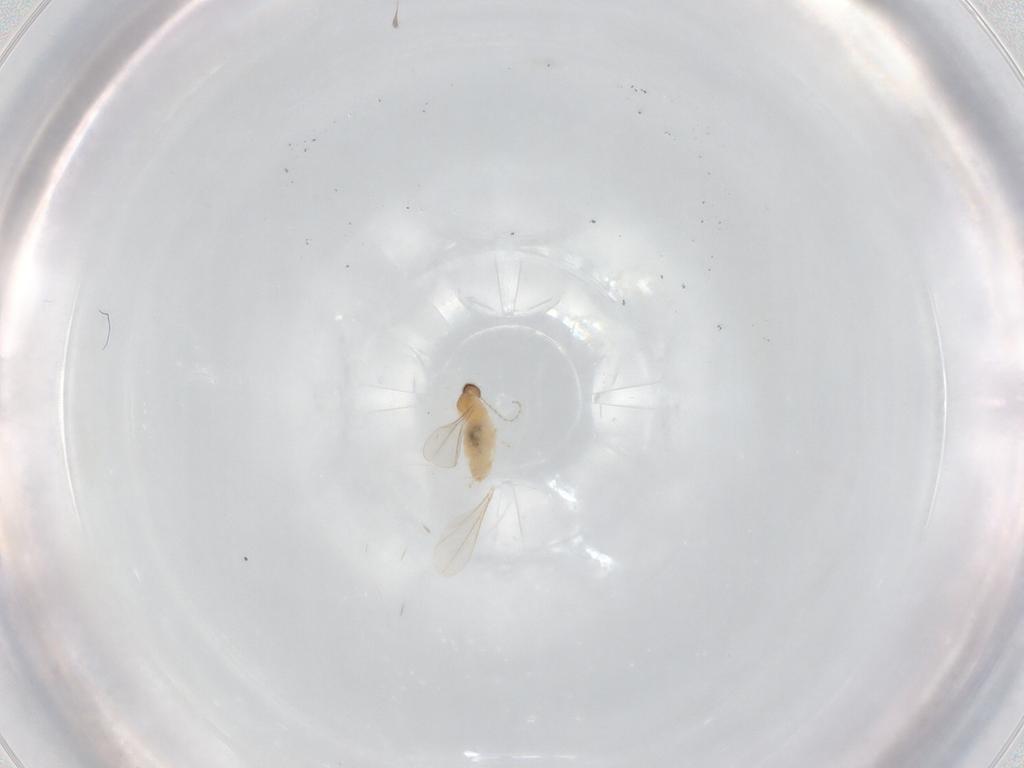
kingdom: Animalia
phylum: Arthropoda
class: Insecta
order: Diptera
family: Cecidomyiidae
